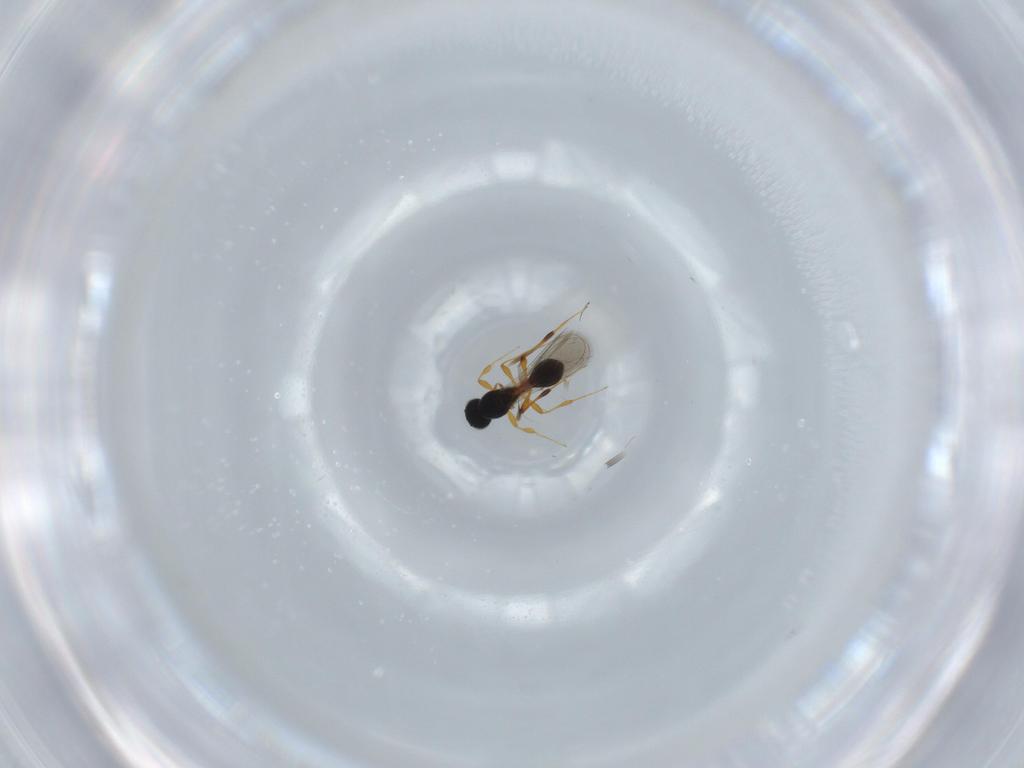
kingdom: Animalia
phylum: Arthropoda
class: Insecta
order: Hymenoptera
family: Platygastridae
